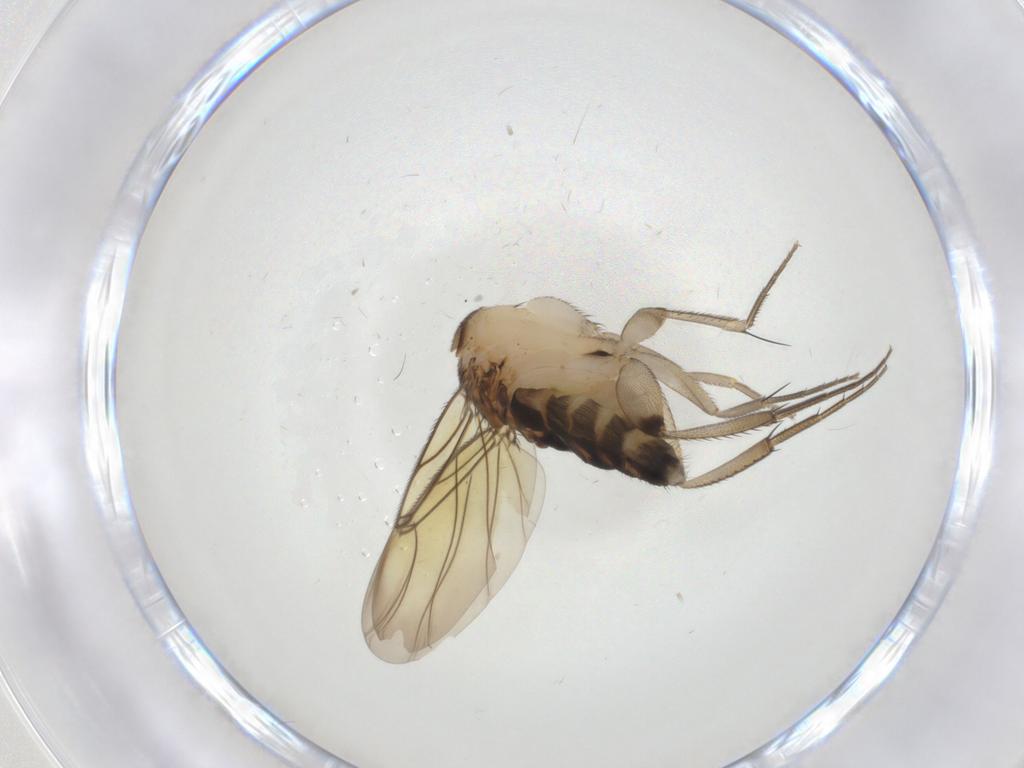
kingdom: Animalia
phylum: Arthropoda
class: Insecta
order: Diptera
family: Phoridae
